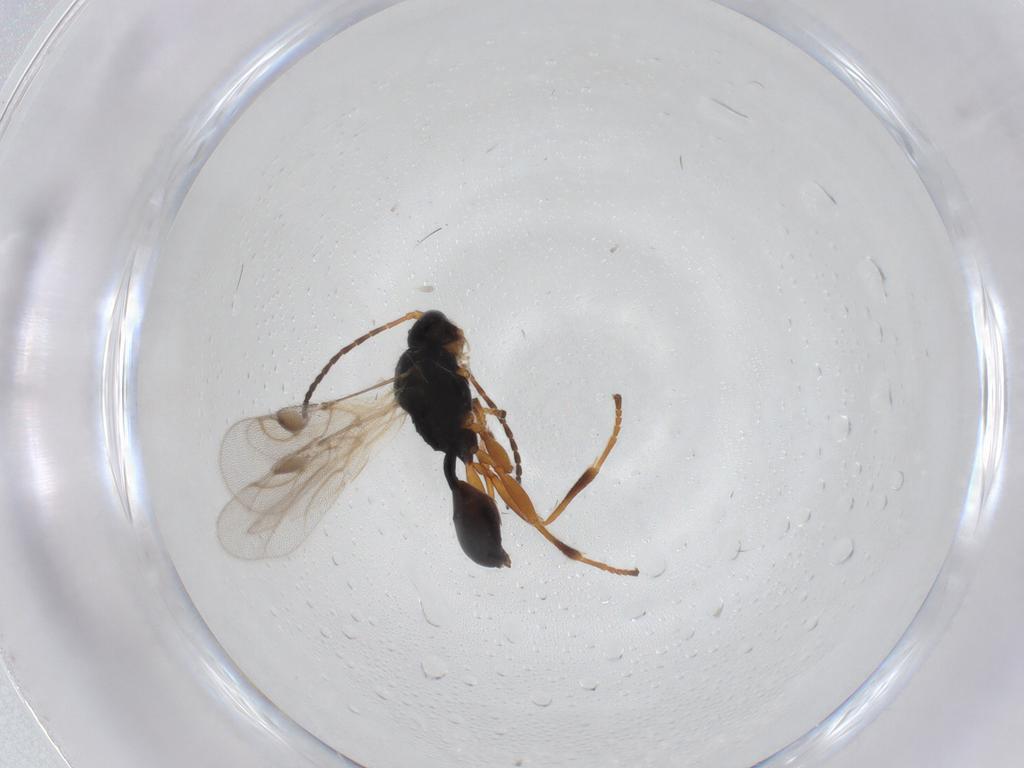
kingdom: Animalia
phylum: Arthropoda
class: Insecta
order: Hymenoptera
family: Braconidae
